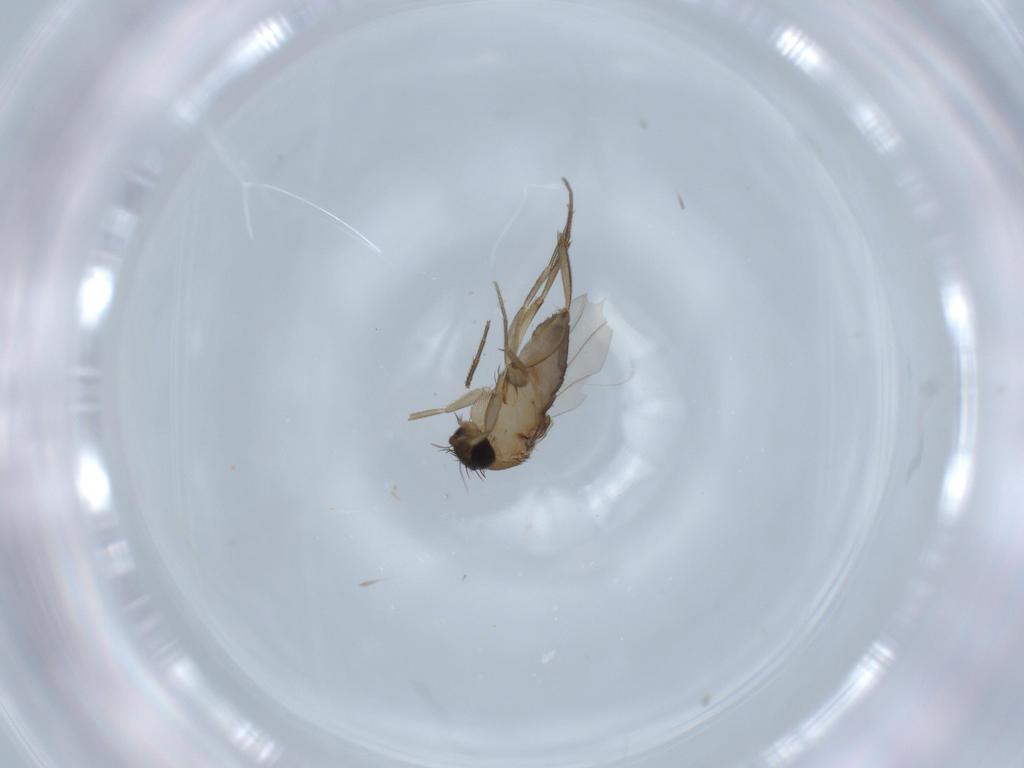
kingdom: Animalia
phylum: Arthropoda
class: Insecta
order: Diptera
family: Phoridae
